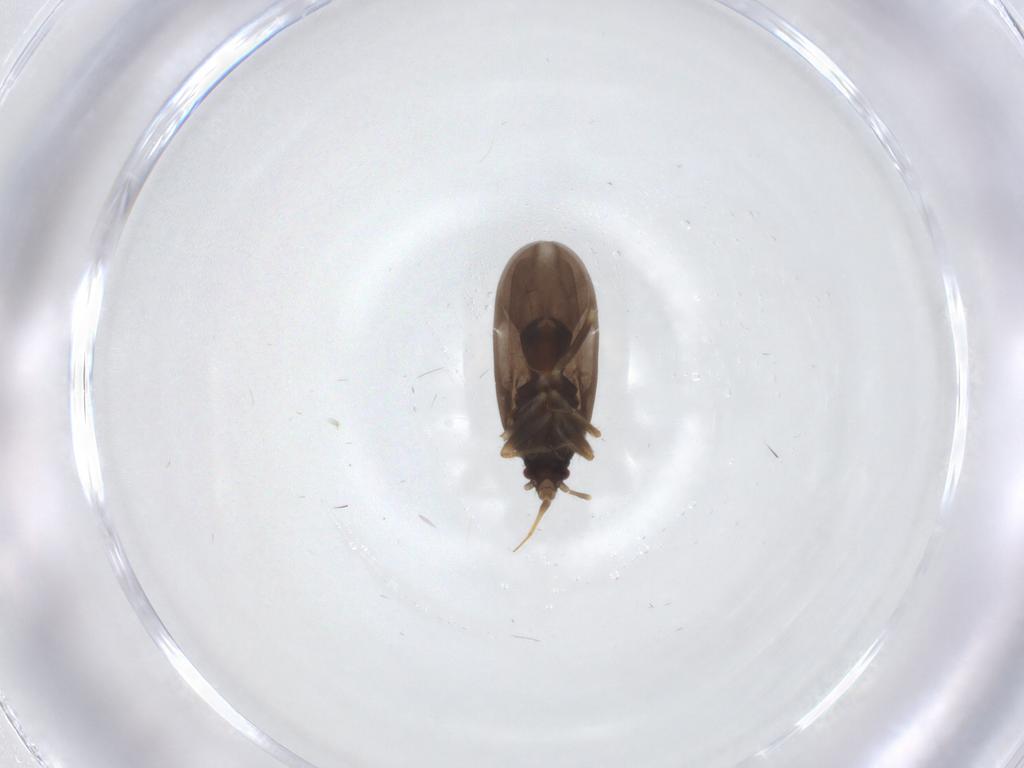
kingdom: Animalia
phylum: Arthropoda
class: Insecta
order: Hemiptera
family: Ceratocombidae
